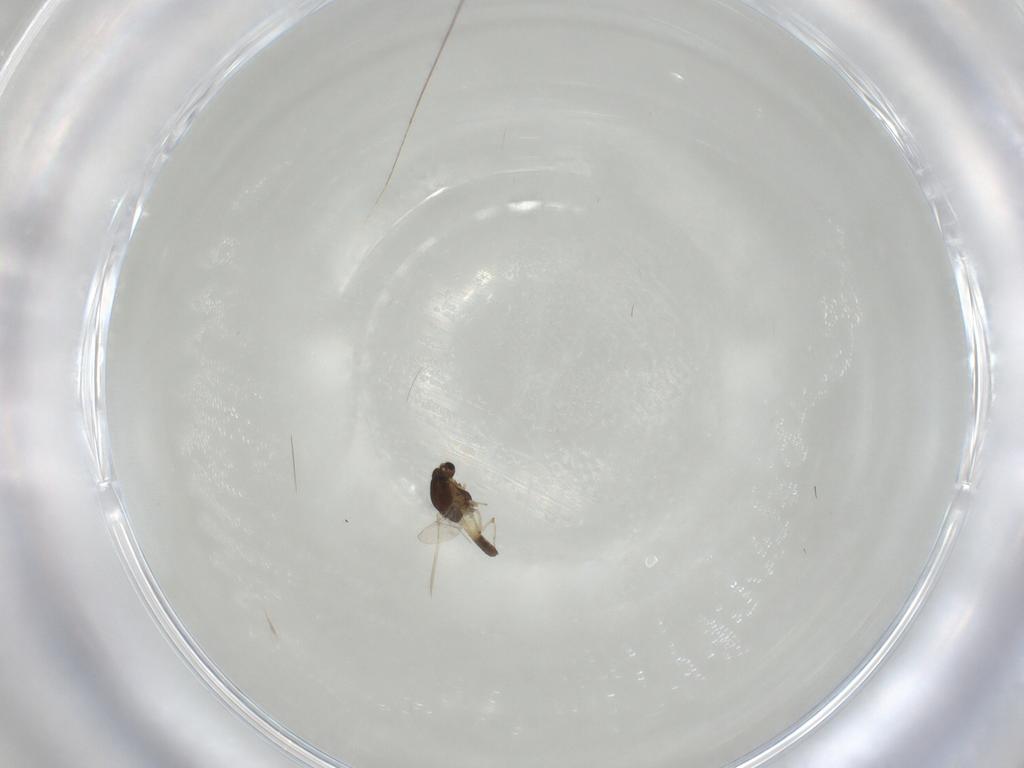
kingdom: Animalia
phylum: Arthropoda
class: Insecta
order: Diptera
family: Chironomidae
